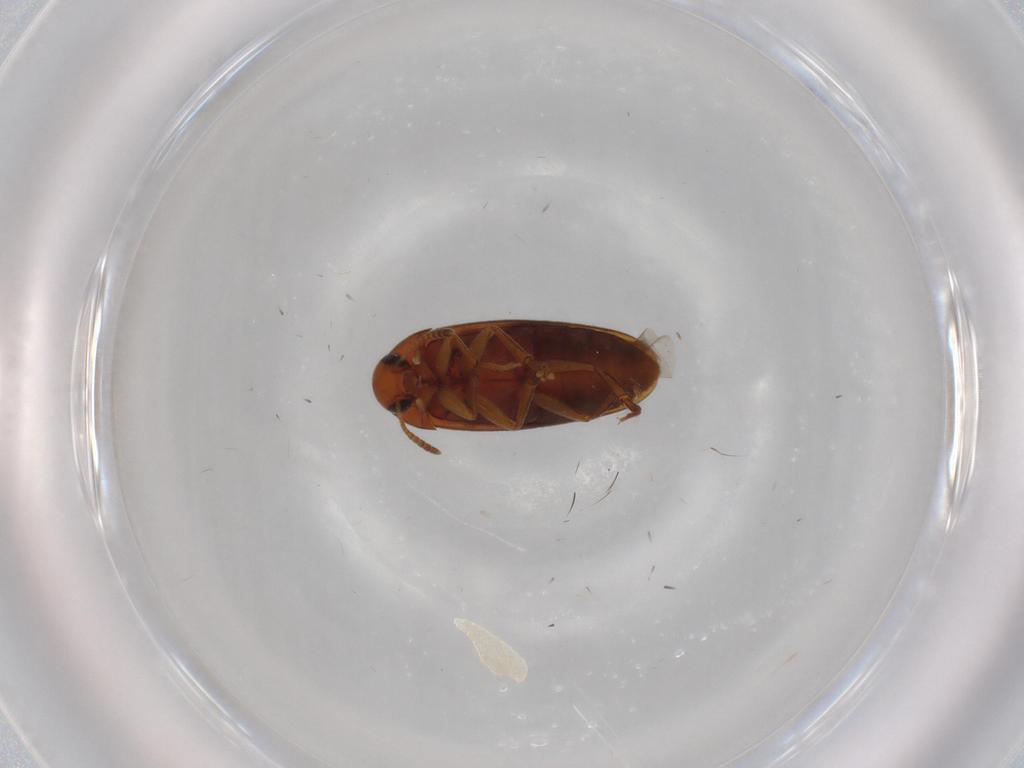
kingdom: Animalia
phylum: Arthropoda
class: Insecta
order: Coleoptera
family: Scraptiidae
